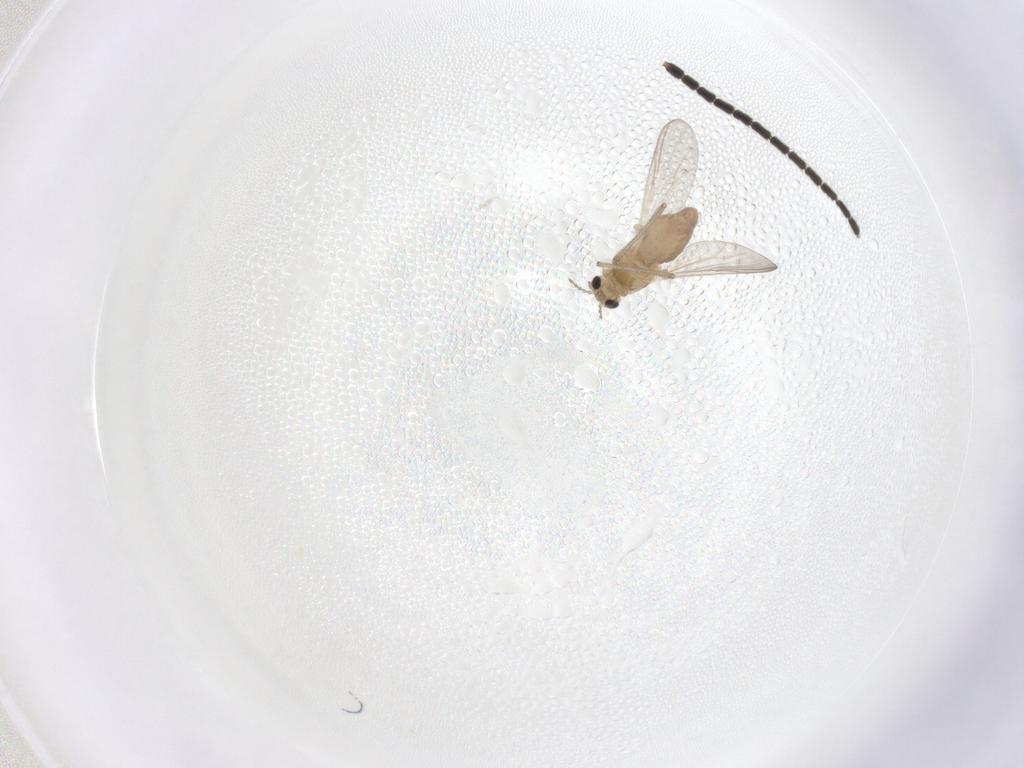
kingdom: Animalia
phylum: Arthropoda
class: Insecta
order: Diptera
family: Chironomidae
